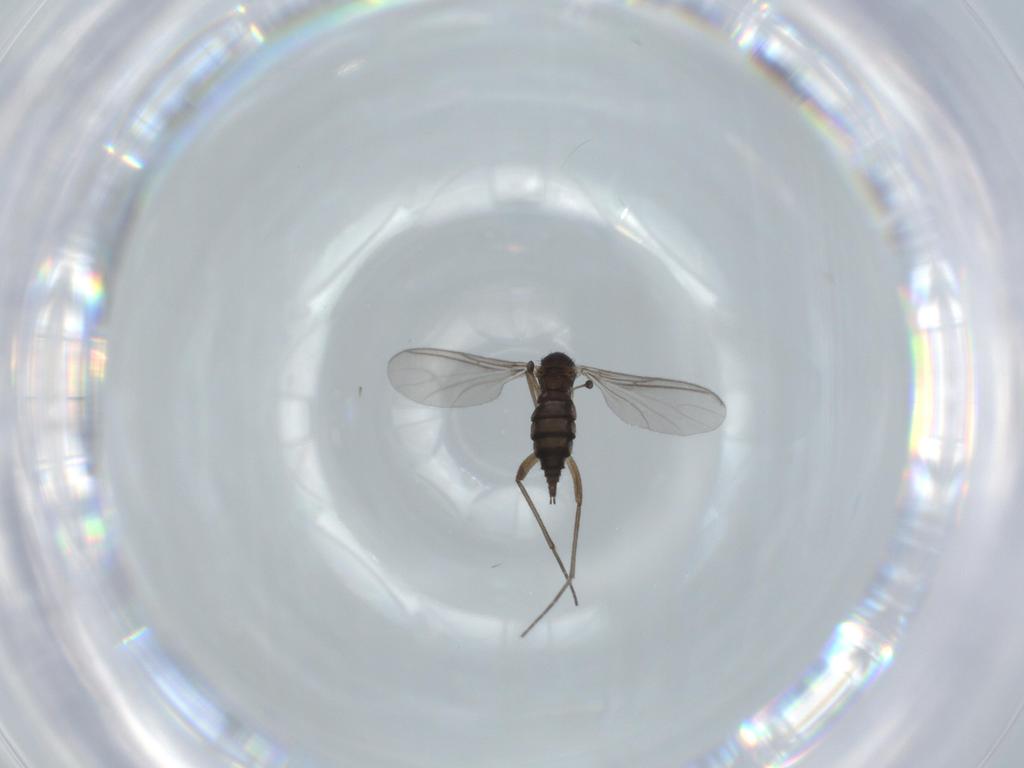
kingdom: Animalia
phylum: Arthropoda
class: Insecta
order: Diptera
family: Sciaridae
